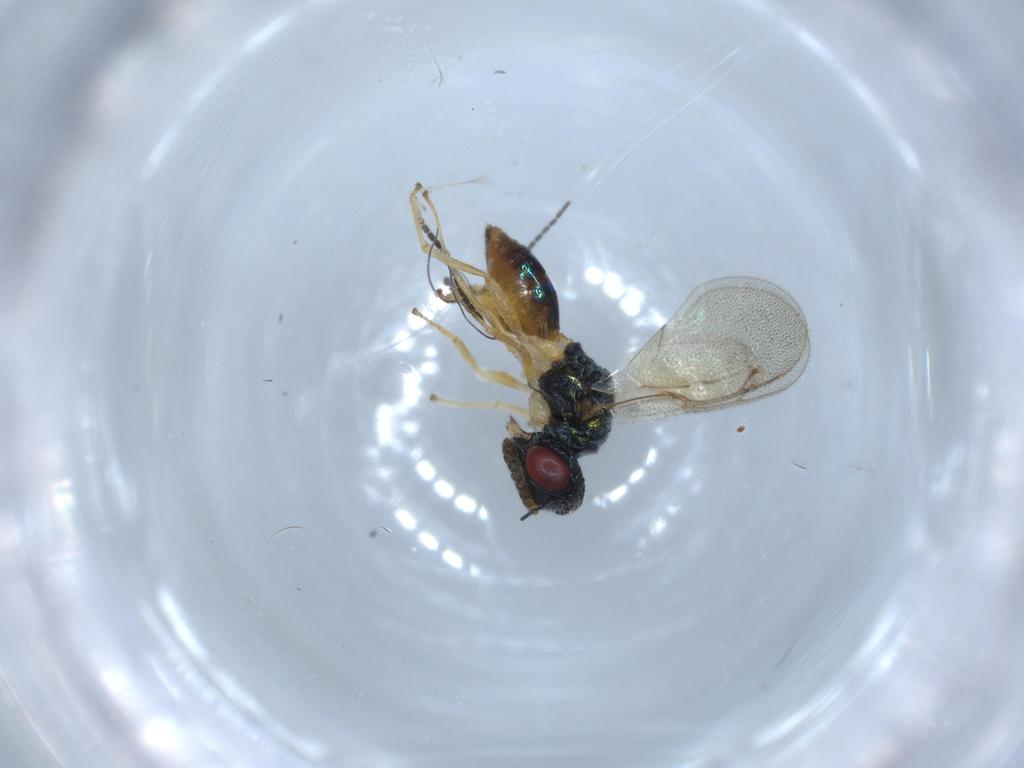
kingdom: Animalia
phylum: Arthropoda
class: Insecta
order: Hymenoptera
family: Pteromalidae
